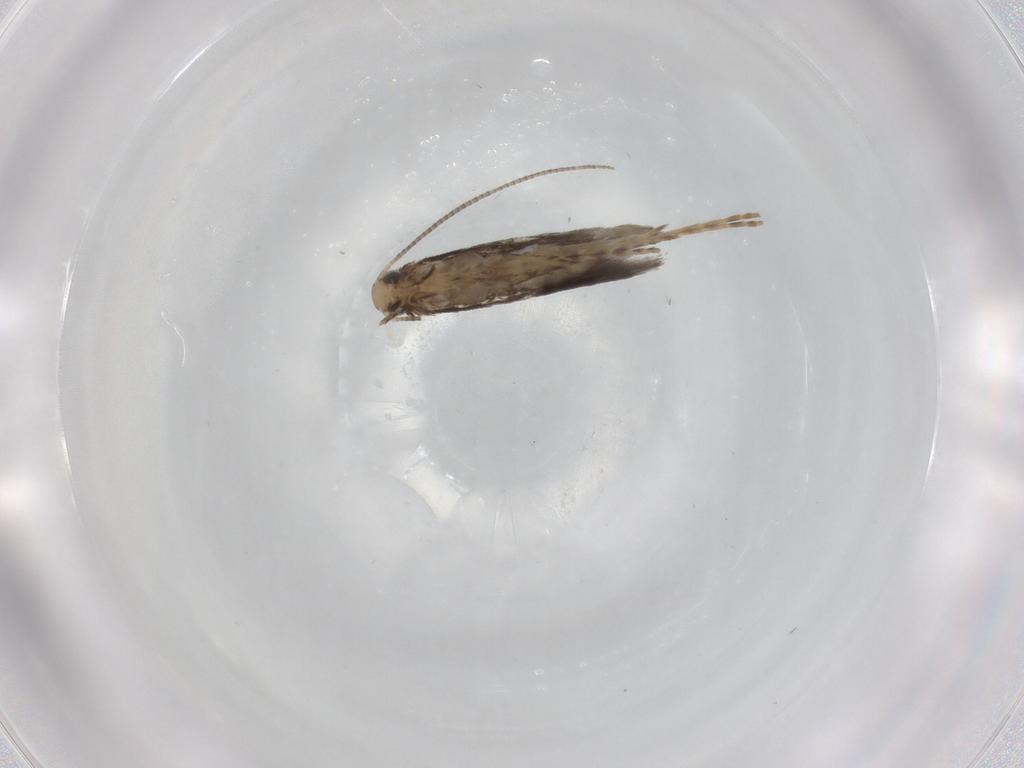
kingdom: Animalia
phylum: Arthropoda
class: Insecta
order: Lepidoptera
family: Nepticulidae
